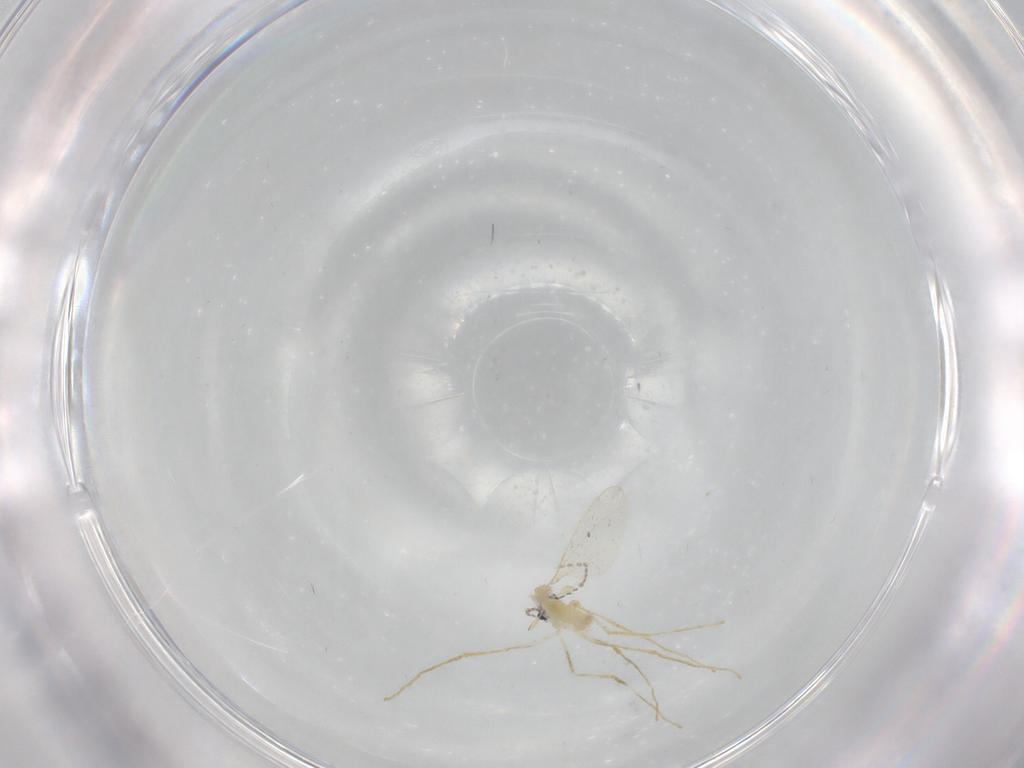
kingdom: Animalia
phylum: Arthropoda
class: Insecta
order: Diptera
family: Cecidomyiidae
